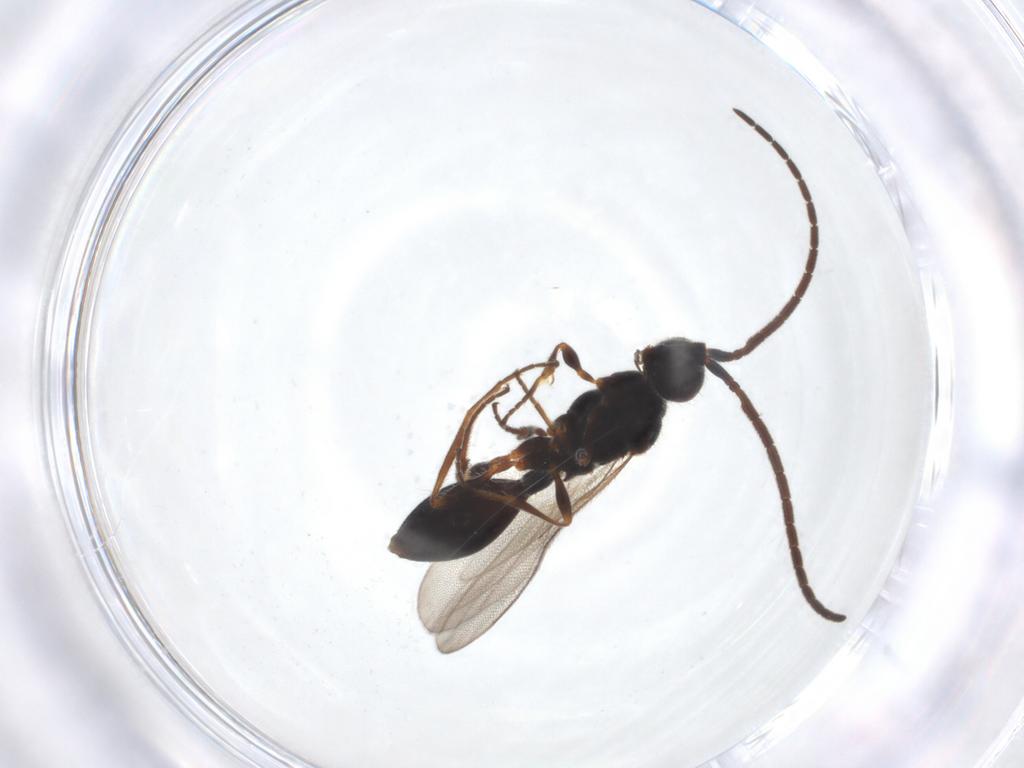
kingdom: Animalia
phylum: Arthropoda
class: Insecta
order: Hymenoptera
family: Diapriidae
